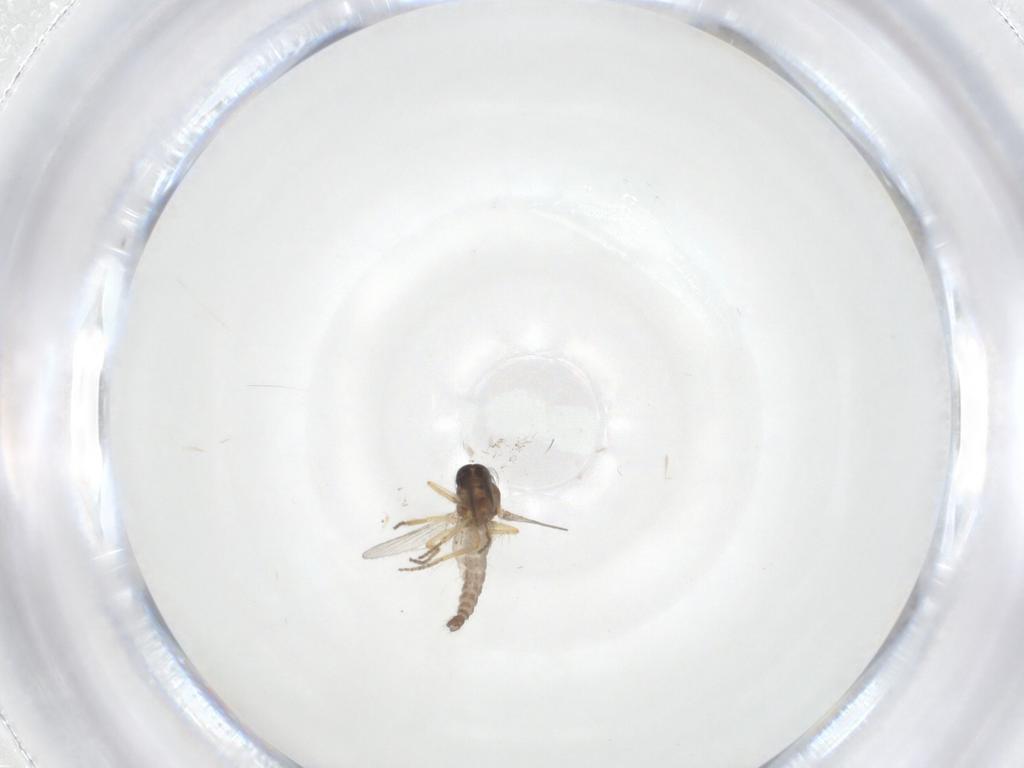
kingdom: Animalia
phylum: Arthropoda
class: Insecta
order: Diptera
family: Ceratopogonidae
